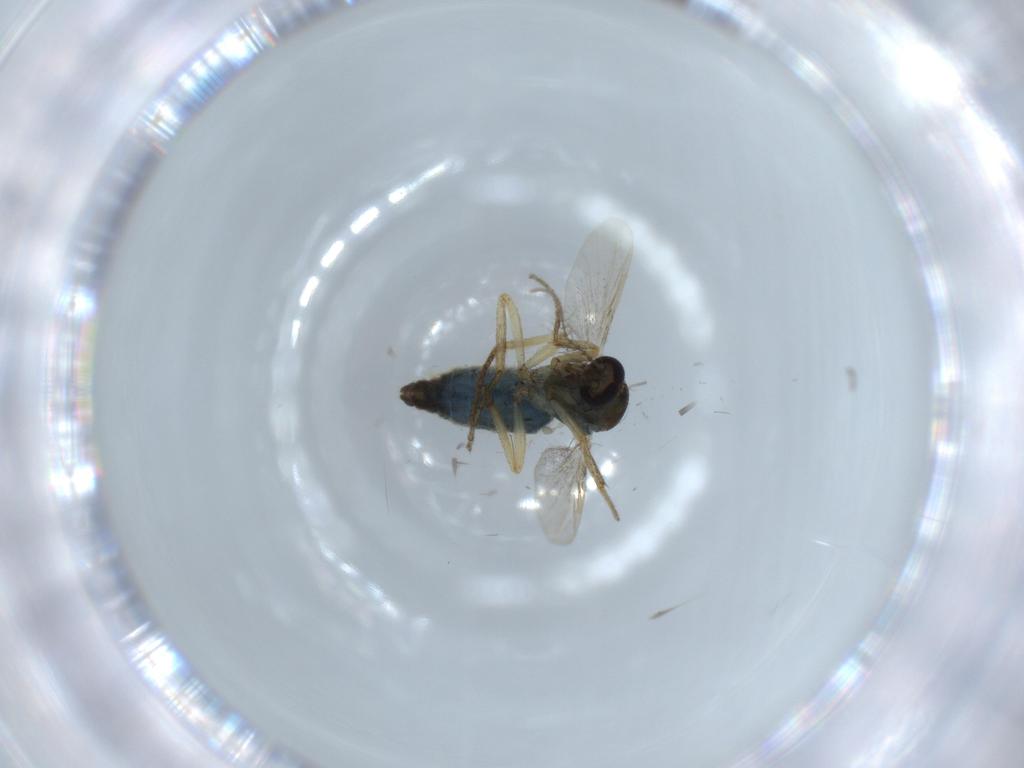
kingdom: Animalia
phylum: Arthropoda
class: Insecta
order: Diptera
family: Ceratopogonidae
